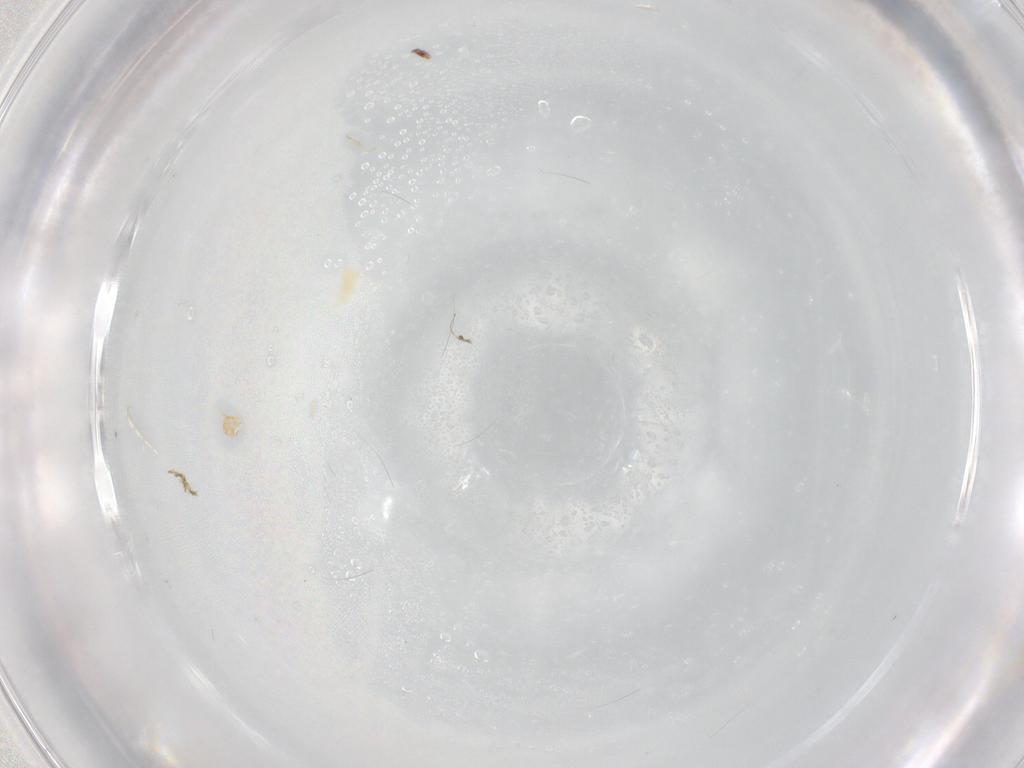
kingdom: Animalia
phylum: Arthropoda
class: Arachnida
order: Trombidiformes
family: Eupodidae
